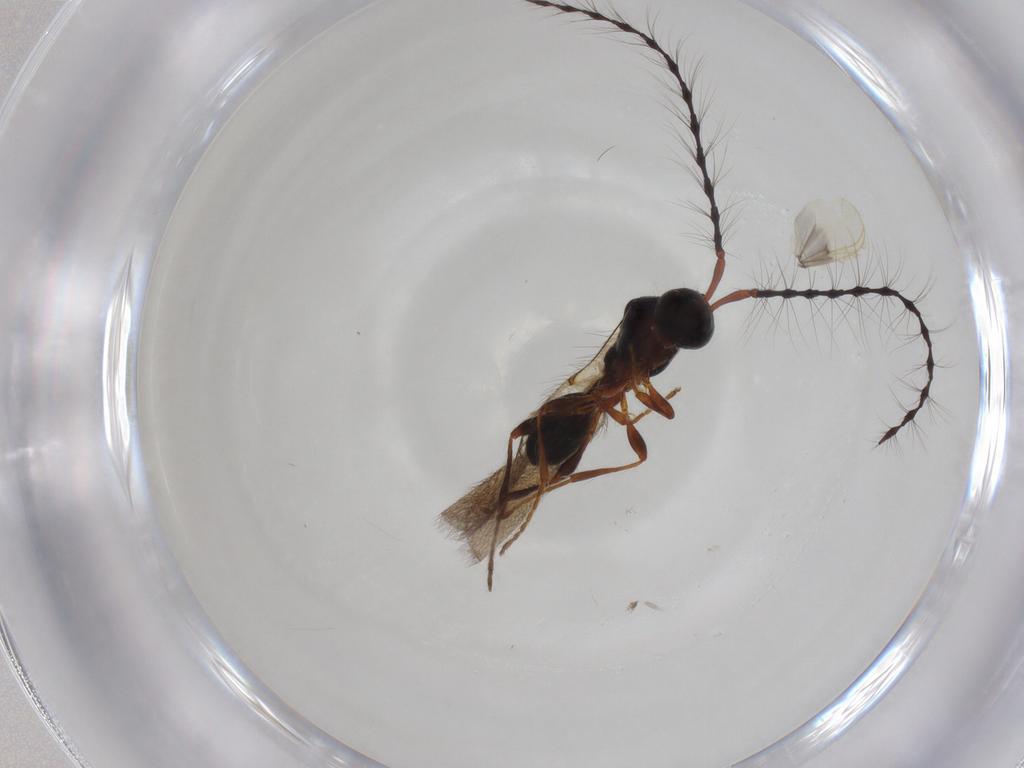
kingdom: Animalia
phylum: Arthropoda
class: Insecta
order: Hymenoptera
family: Diapriidae
